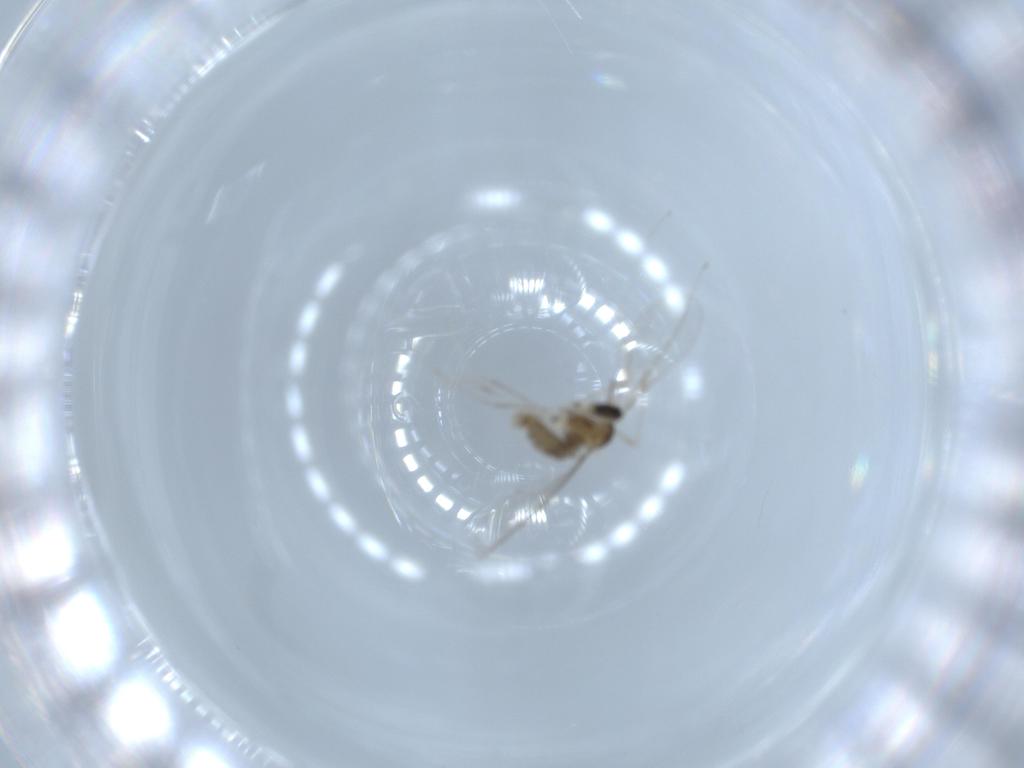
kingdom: Animalia
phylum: Arthropoda
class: Insecta
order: Diptera
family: Cecidomyiidae
